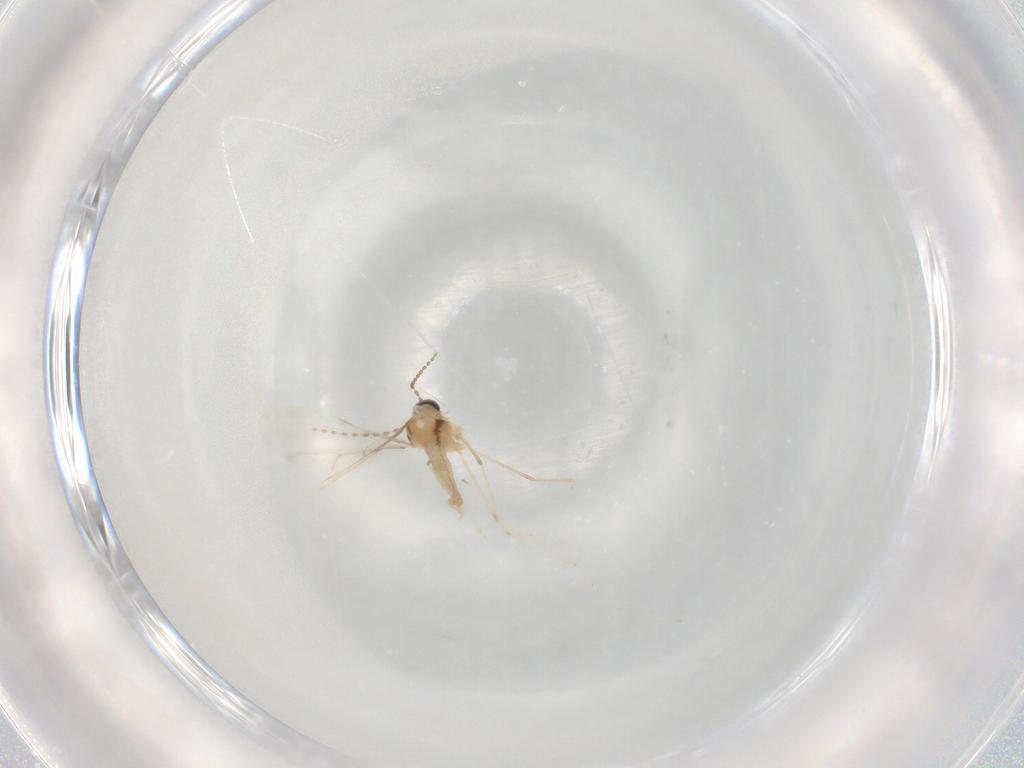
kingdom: Animalia
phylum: Arthropoda
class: Insecta
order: Diptera
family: Cecidomyiidae
